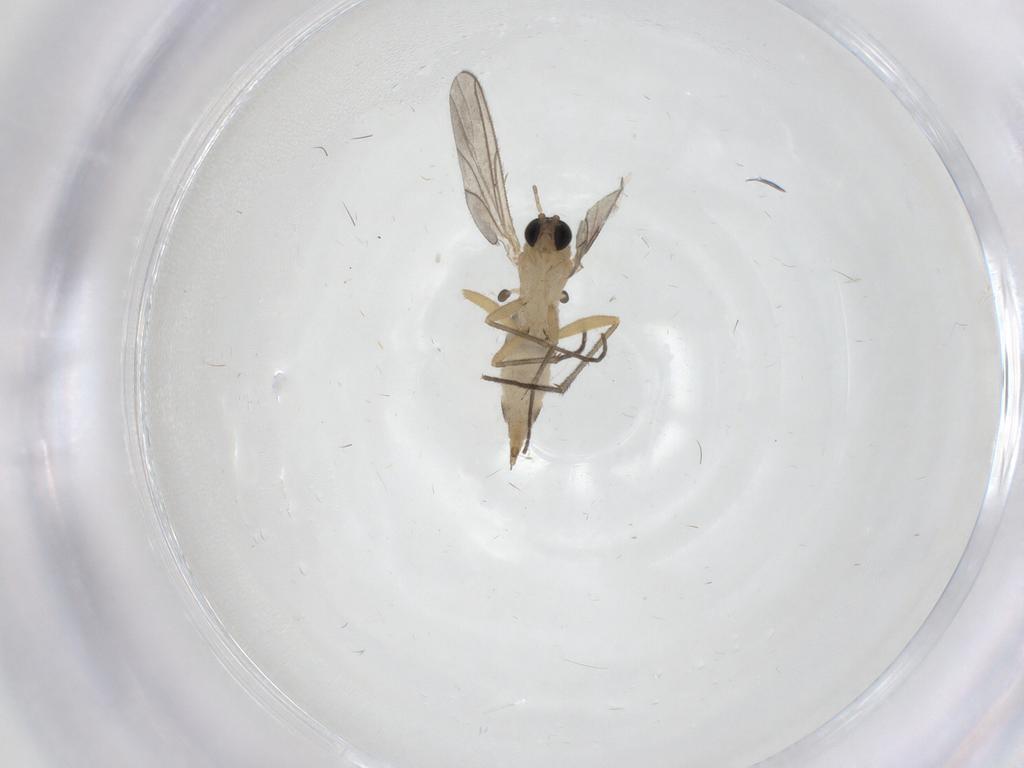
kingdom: Animalia
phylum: Arthropoda
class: Insecta
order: Diptera
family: Sciaridae
